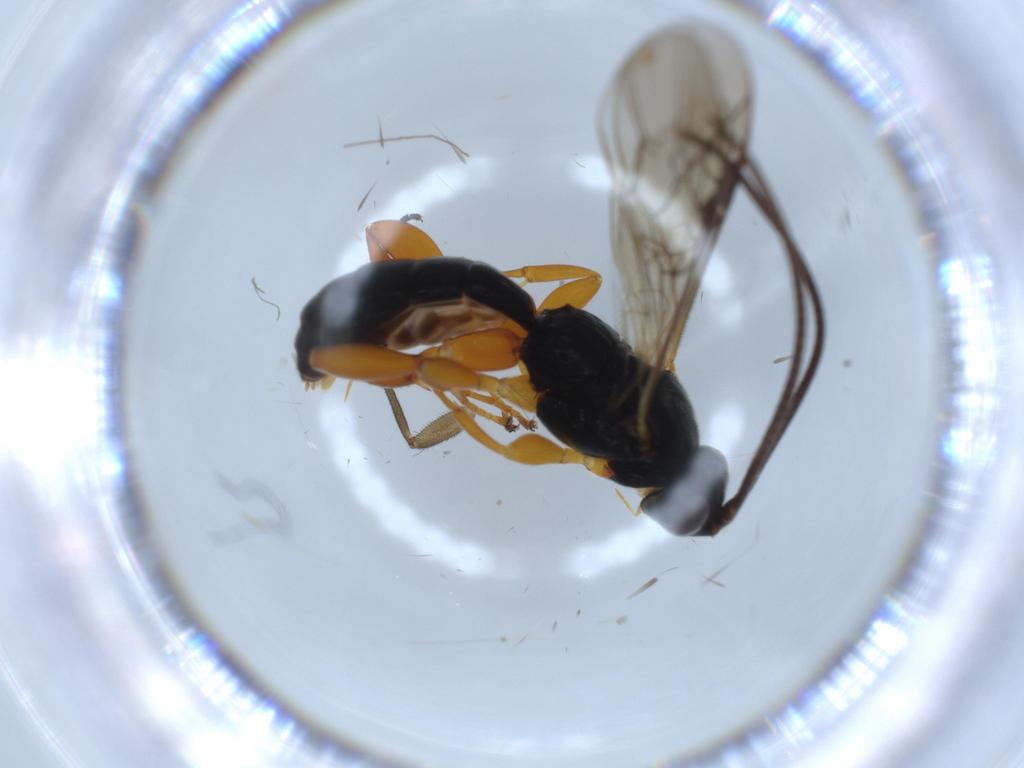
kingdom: Animalia
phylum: Arthropoda
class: Insecta
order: Hymenoptera
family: Ichneumonidae
